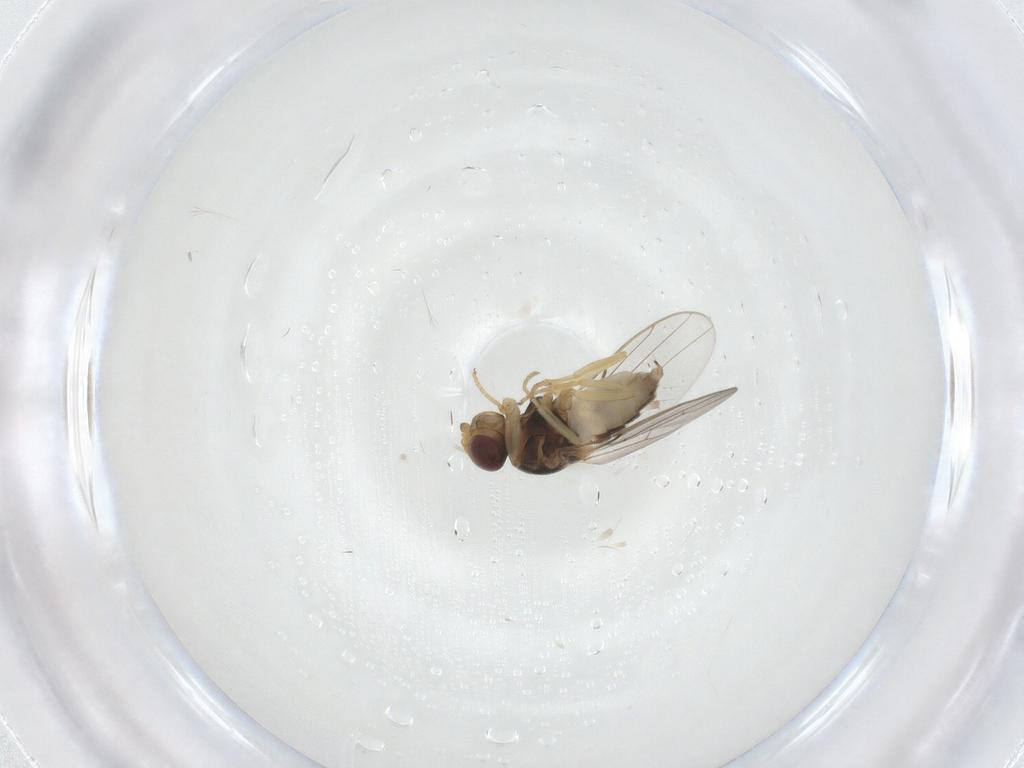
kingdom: Animalia
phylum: Arthropoda
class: Insecta
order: Diptera
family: Chloropidae
